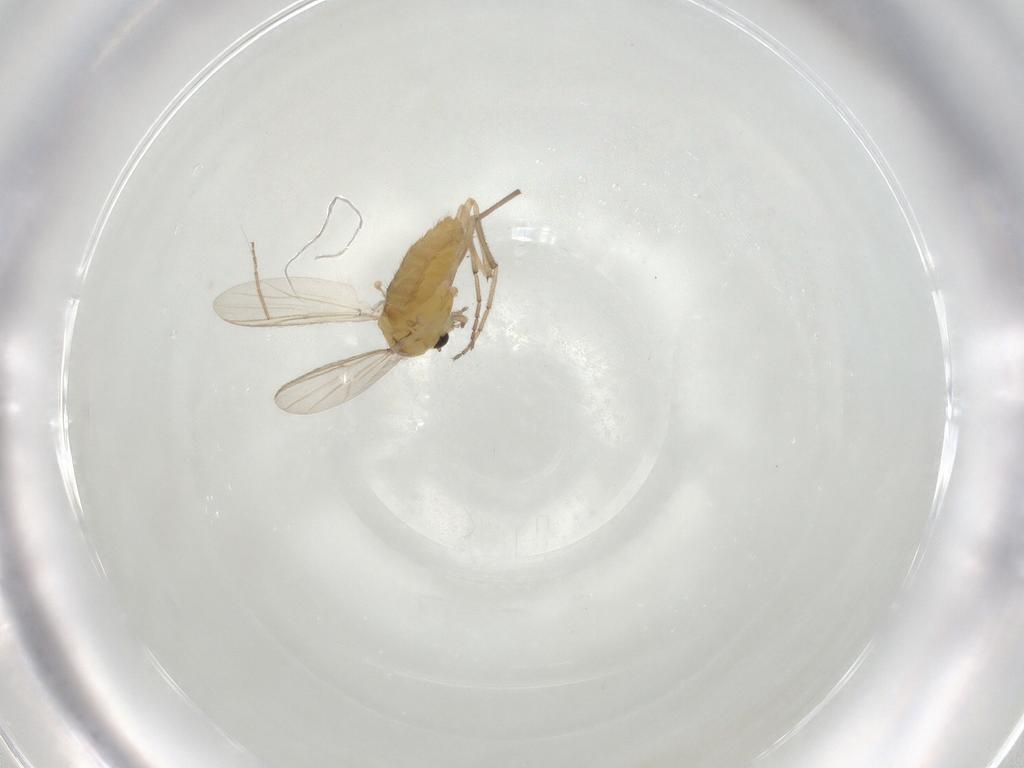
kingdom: Animalia
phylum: Arthropoda
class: Insecta
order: Diptera
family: Chironomidae
